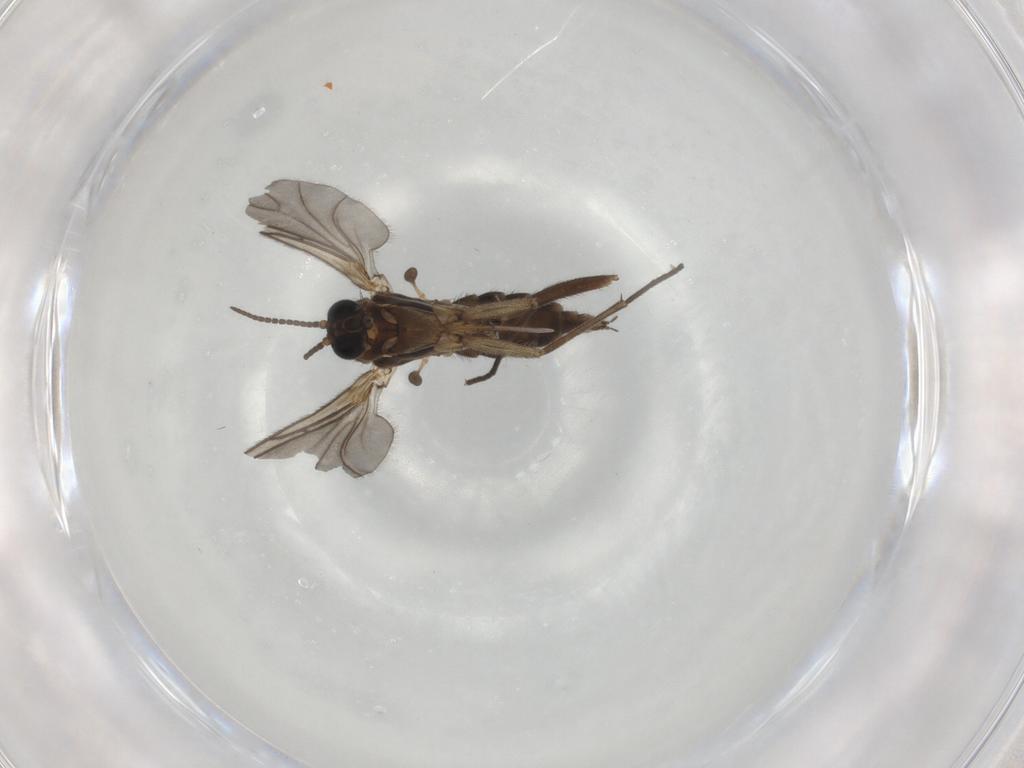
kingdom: Animalia
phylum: Arthropoda
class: Insecta
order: Diptera
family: Sciaridae
